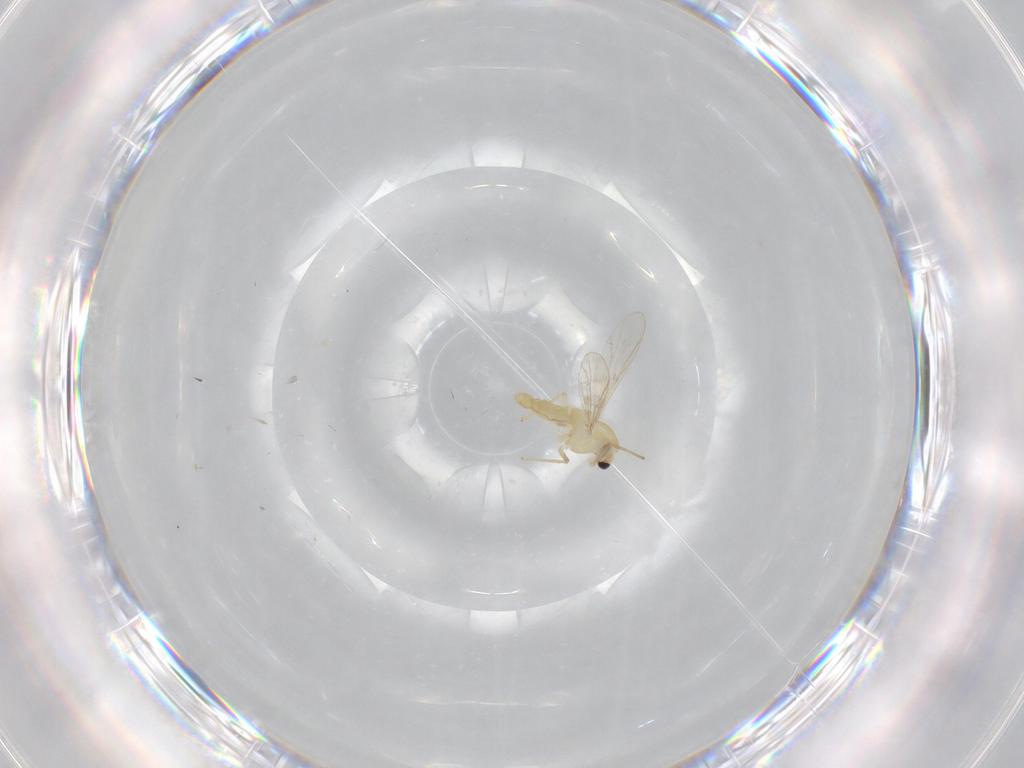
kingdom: Animalia
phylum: Arthropoda
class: Insecta
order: Diptera
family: Chironomidae
